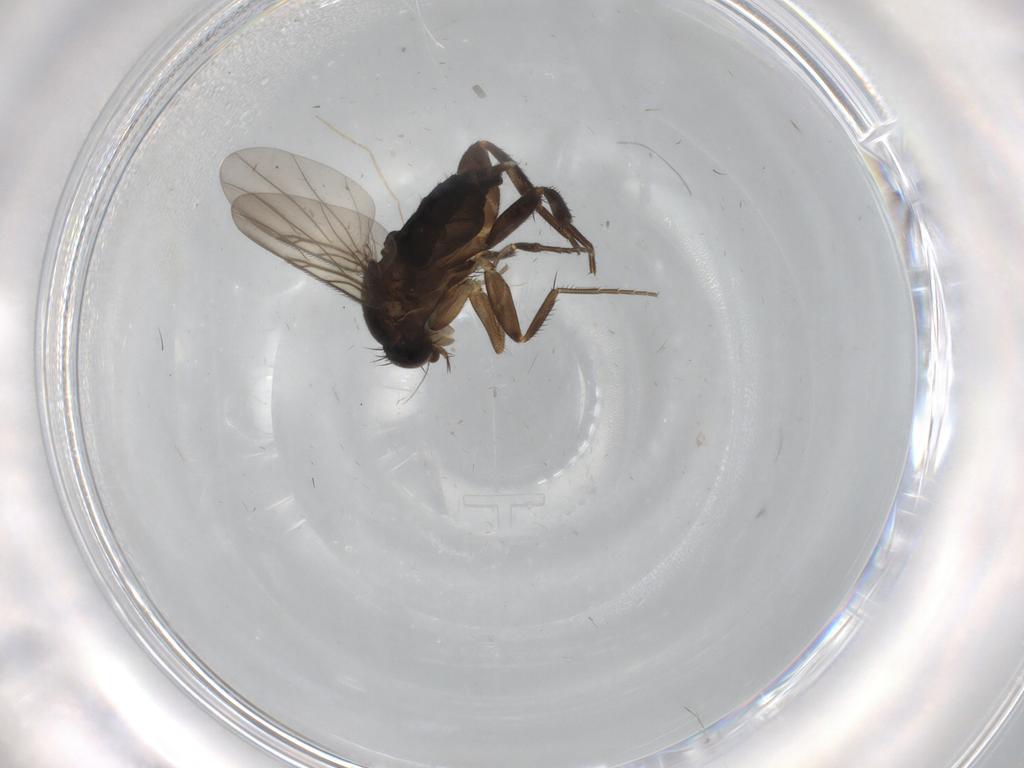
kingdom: Animalia
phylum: Arthropoda
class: Insecta
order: Diptera
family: Phoridae
